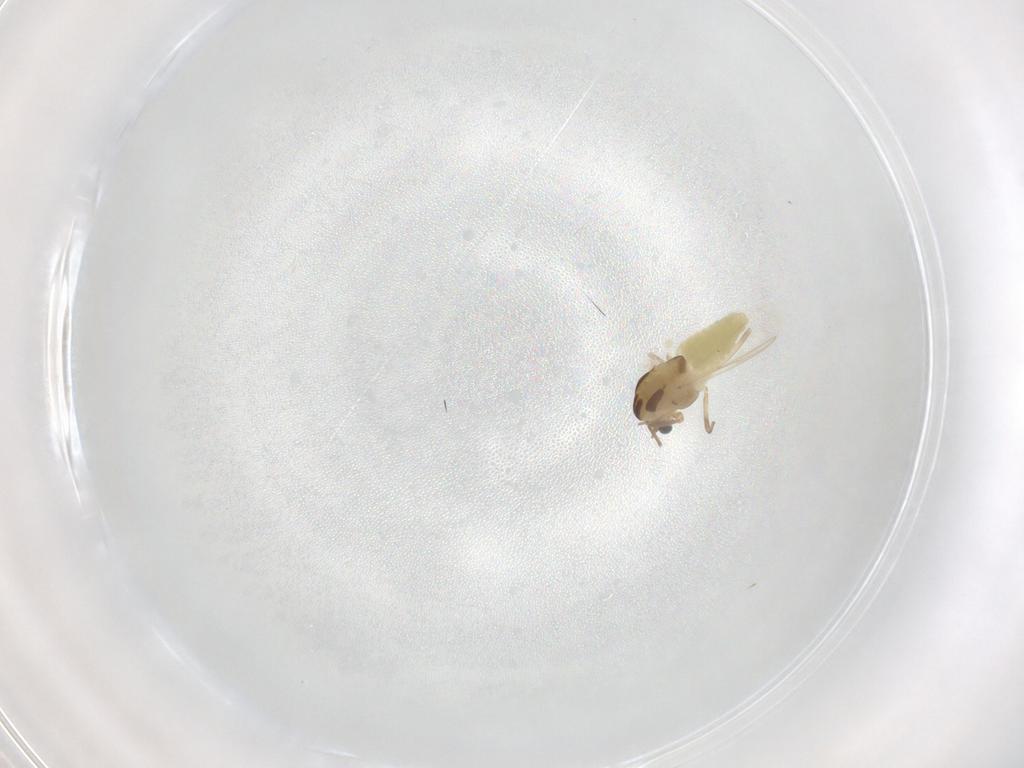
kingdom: Animalia
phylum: Arthropoda
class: Insecta
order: Diptera
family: Chironomidae
